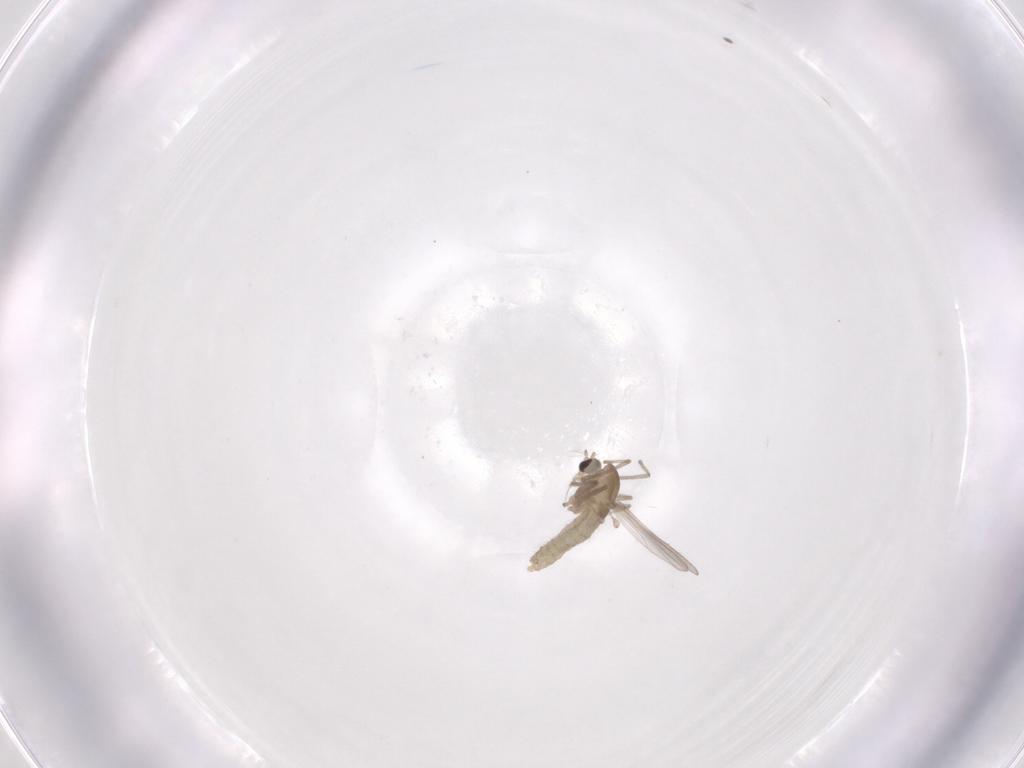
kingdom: Animalia
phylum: Arthropoda
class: Insecta
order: Diptera
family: Chironomidae
